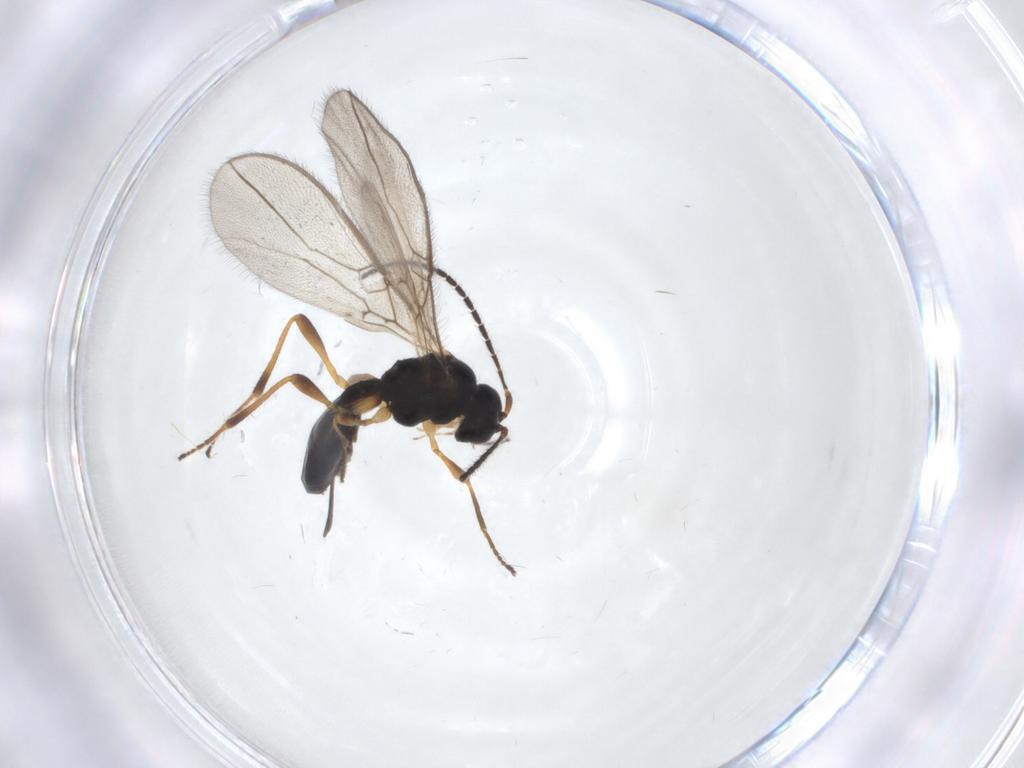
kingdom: Animalia
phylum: Arthropoda
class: Insecta
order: Hymenoptera
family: Braconidae
